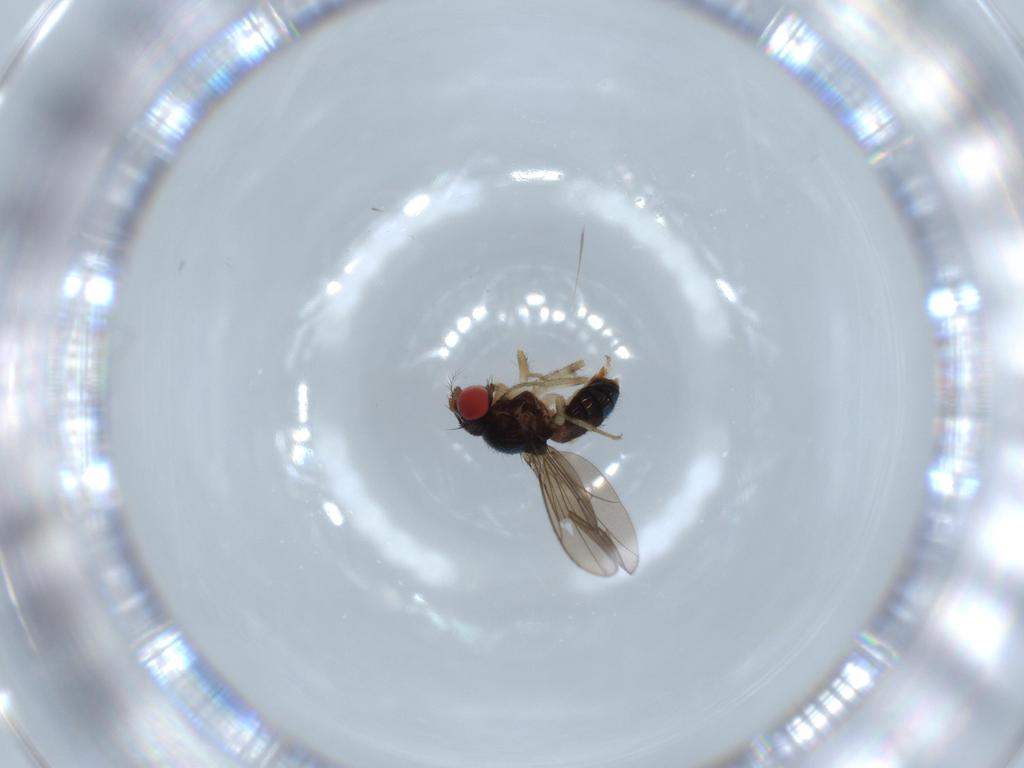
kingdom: Animalia
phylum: Arthropoda
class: Insecta
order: Diptera
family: Drosophilidae
